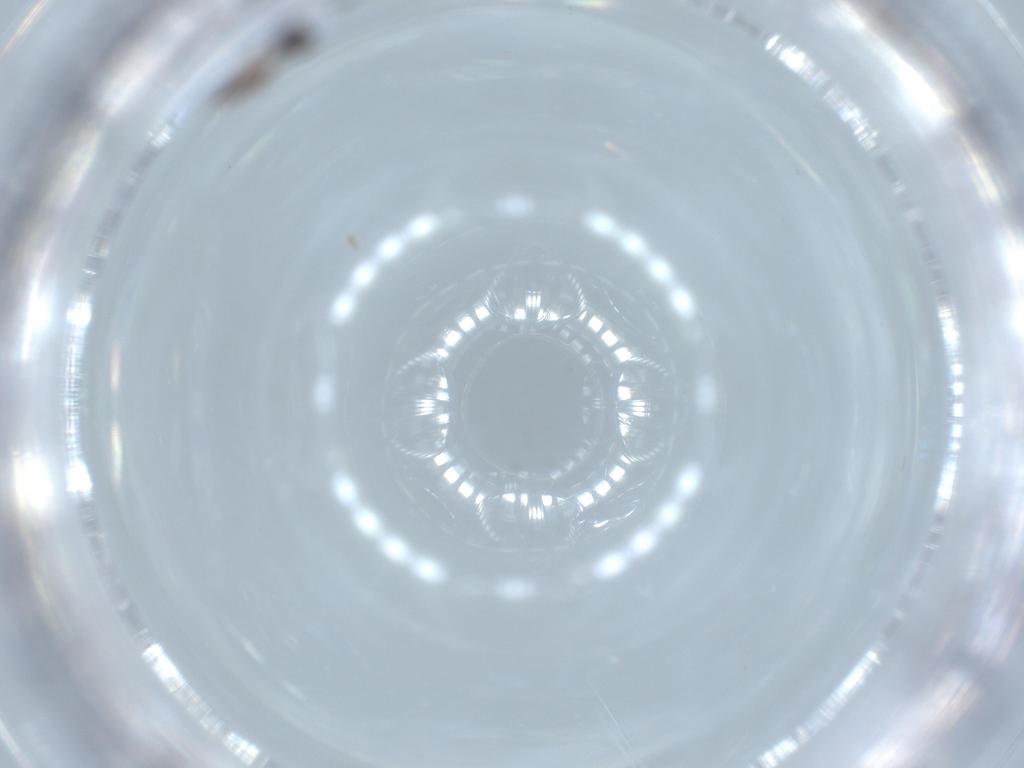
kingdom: Animalia
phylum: Arthropoda
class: Insecta
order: Hymenoptera
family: Diapriidae
